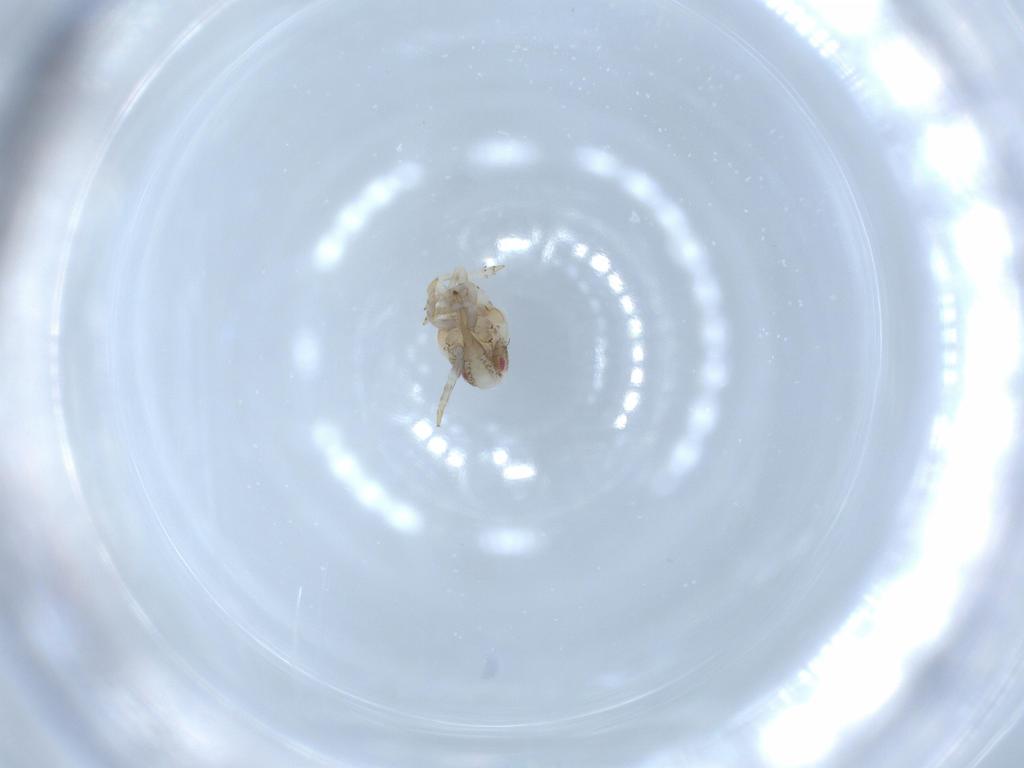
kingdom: Animalia
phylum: Arthropoda
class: Insecta
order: Hemiptera
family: Acanaloniidae
